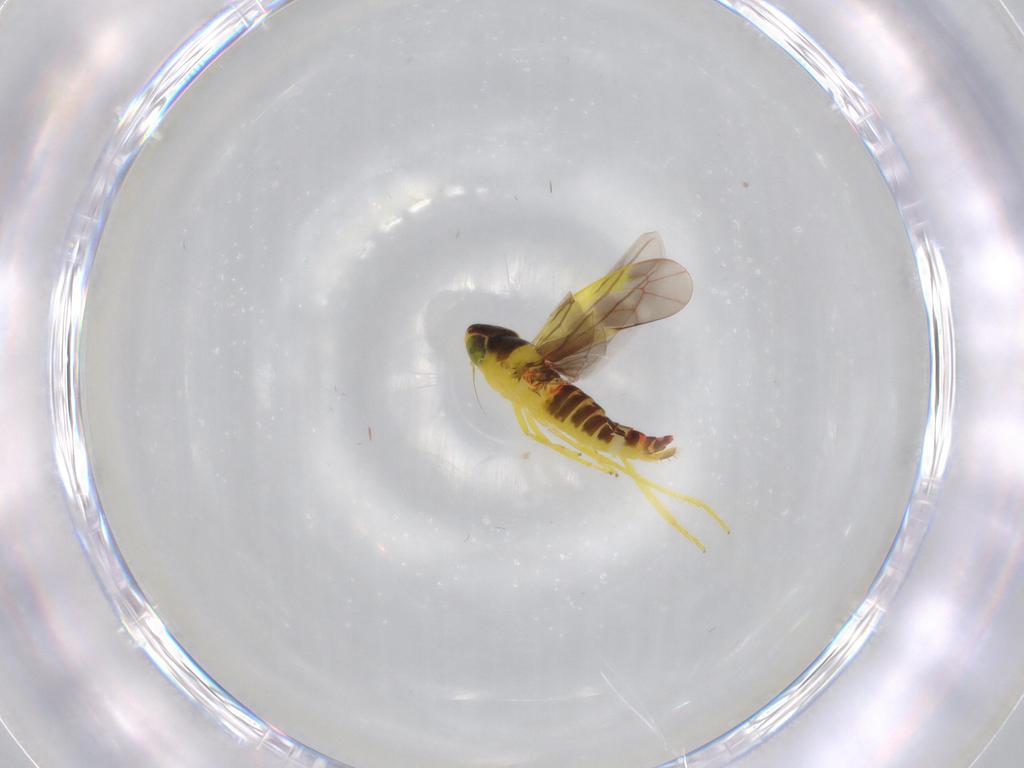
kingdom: Animalia
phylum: Arthropoda
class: Insecta
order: Hemiptera
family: Cicadellidae
